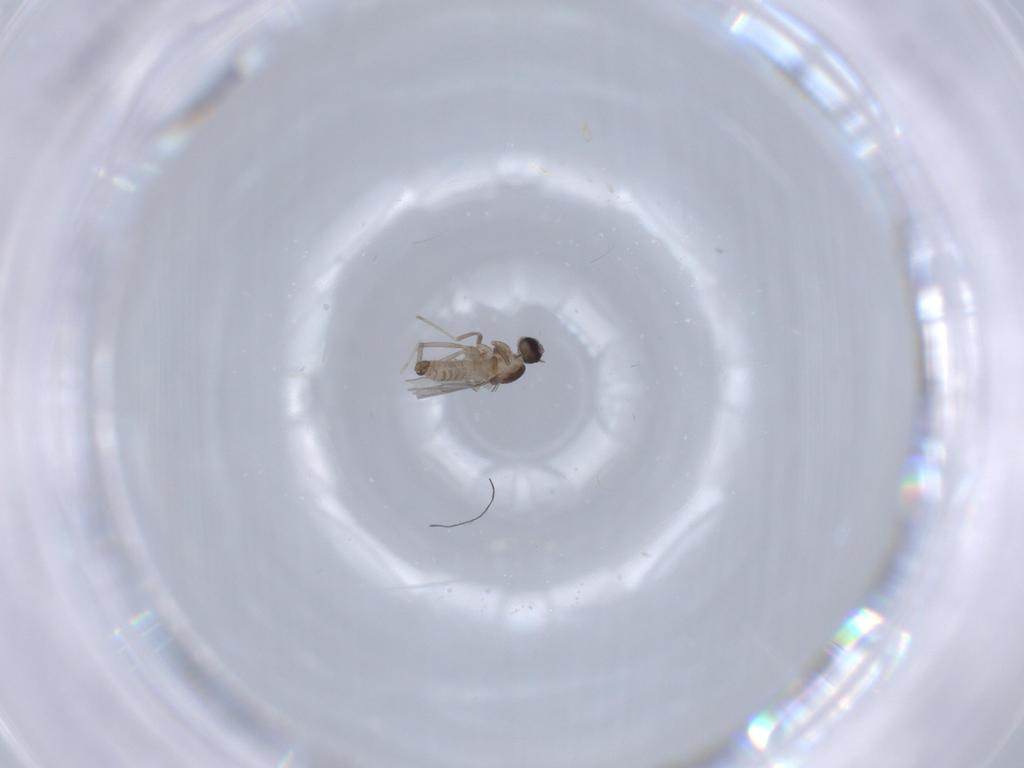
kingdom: Animalia
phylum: Arthropoda
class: Insecta
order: Diptera
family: Cecidomyiidae
